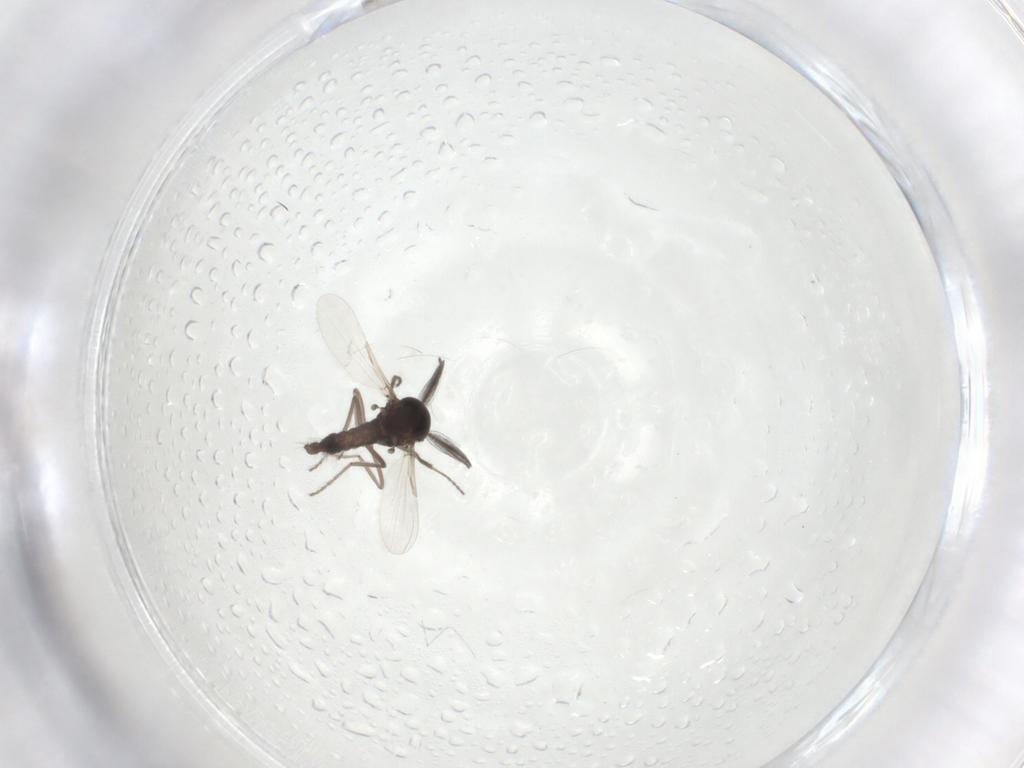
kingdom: Animalia
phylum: Arthropoda
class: Insecta
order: Diptera
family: Ceratopogonidae
